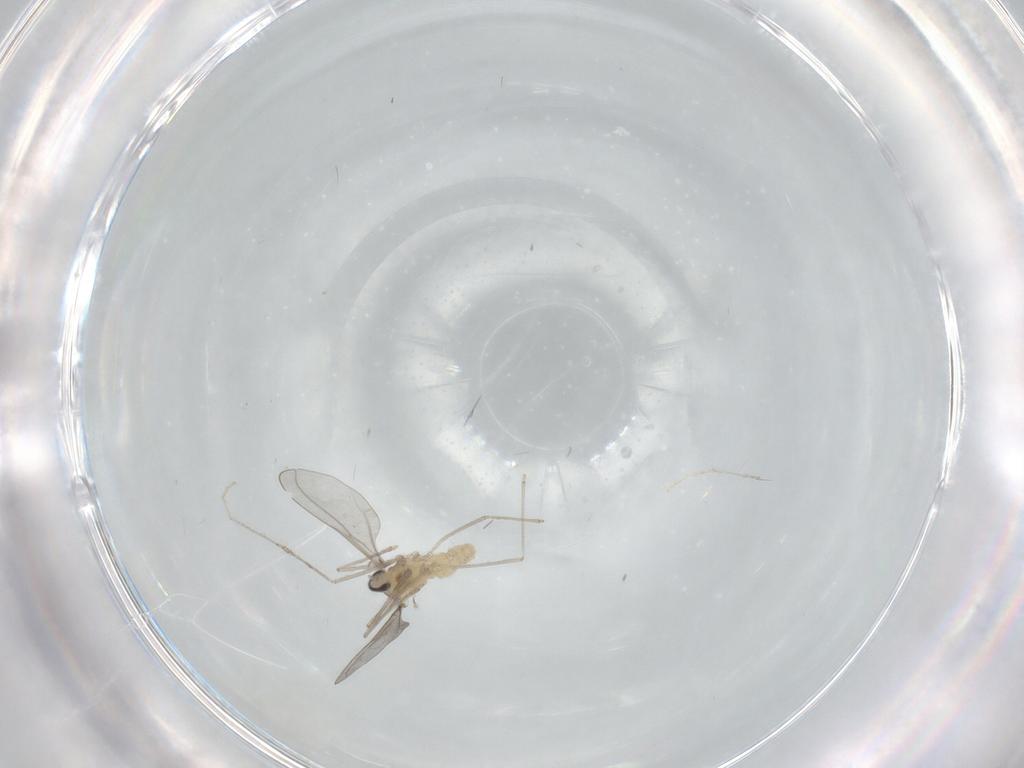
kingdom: Animalia
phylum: Arthropoda
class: Insecta
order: Diptera
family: Cecidomyiidae
